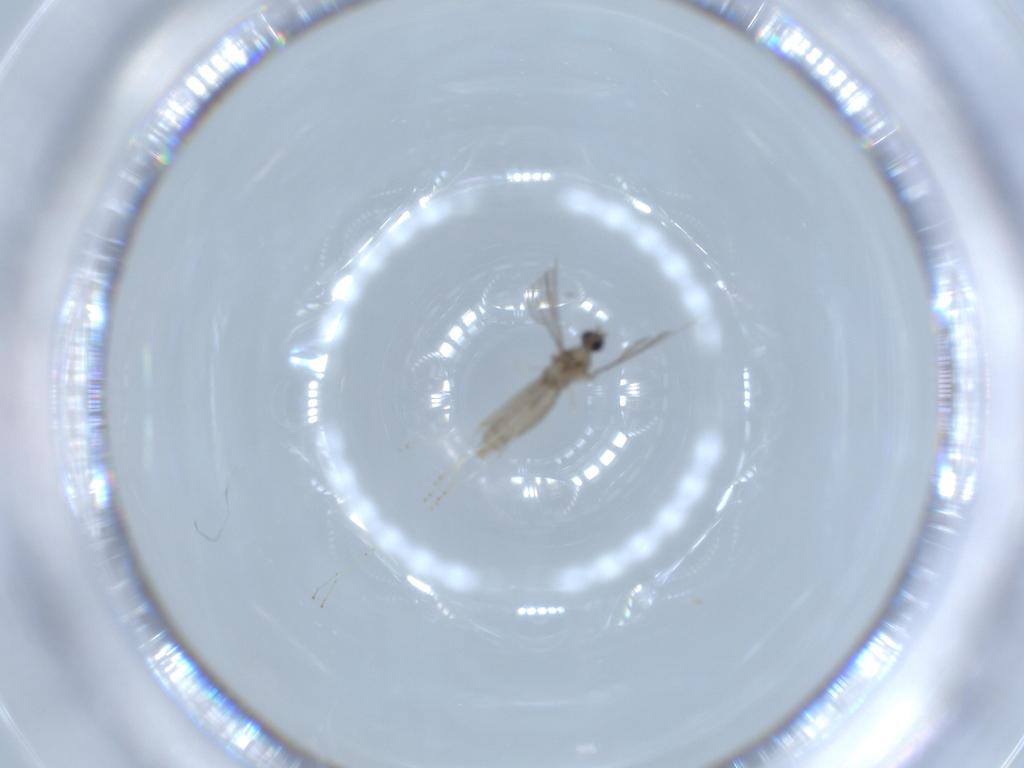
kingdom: Animalia
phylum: Arthropoda
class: Insecta
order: Diptera
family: Cecidomyiidae
